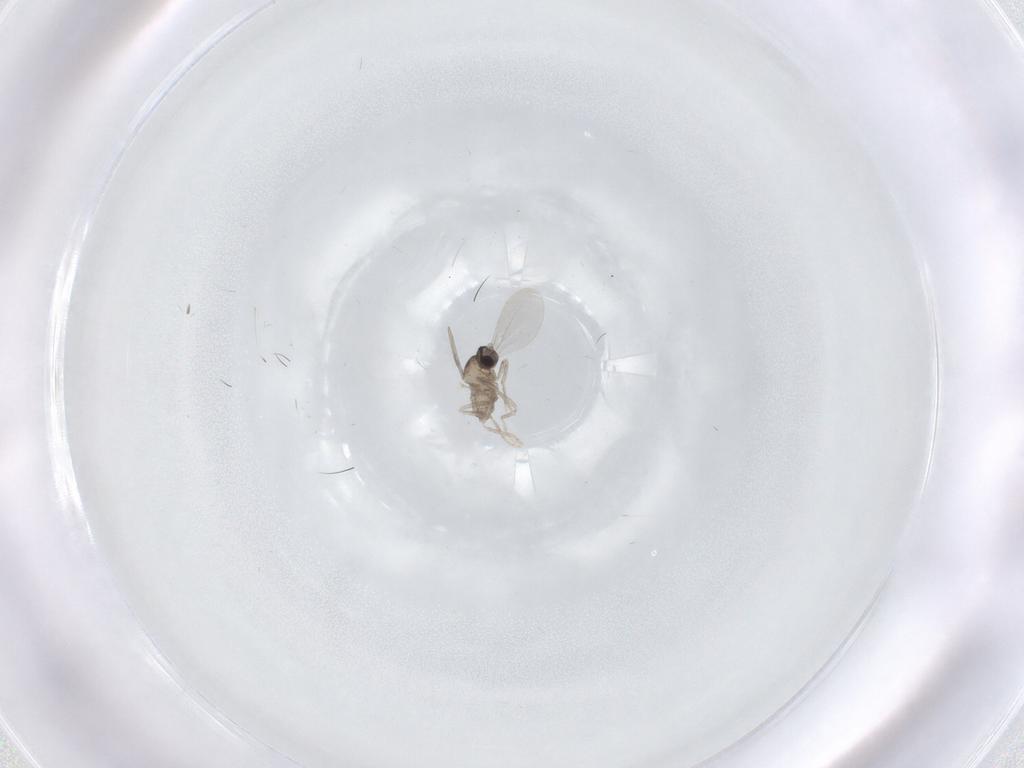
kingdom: Animalia
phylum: Arthropoda
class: Insecta
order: Diptera
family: Cecidomyiidae
